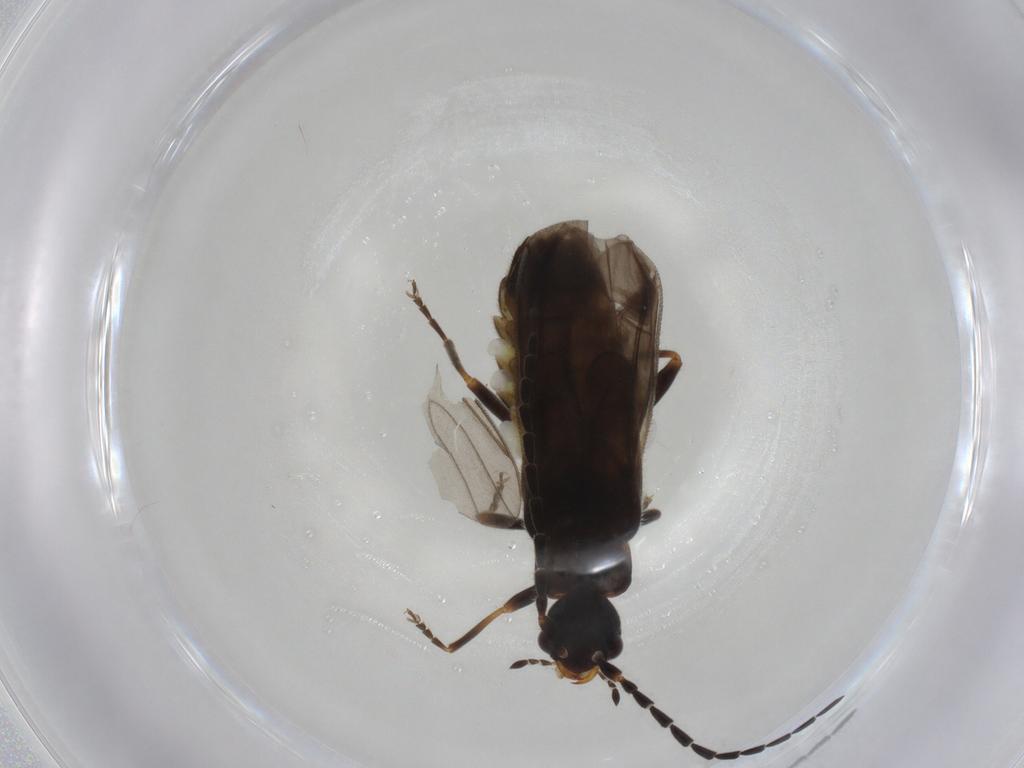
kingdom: Animalia
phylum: Arthropoda
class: Insecta
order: Coleoptera
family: Cantharidae
